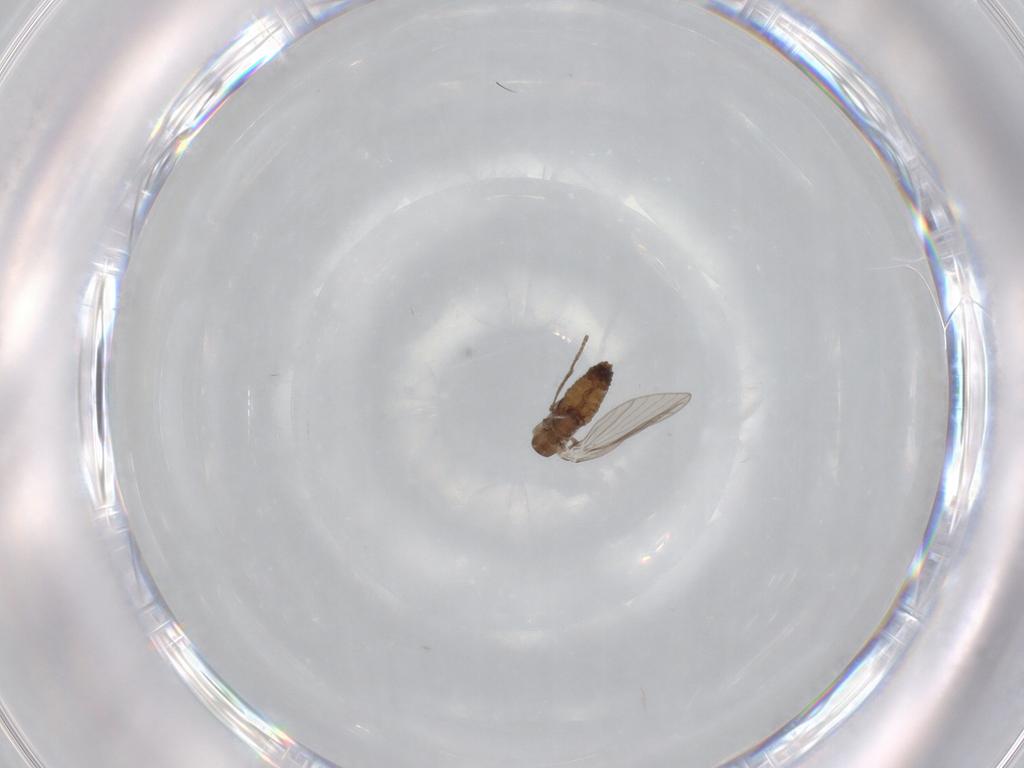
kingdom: Animalia
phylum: Arthropoda
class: Insecta
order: Diptera
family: Psychodidae
